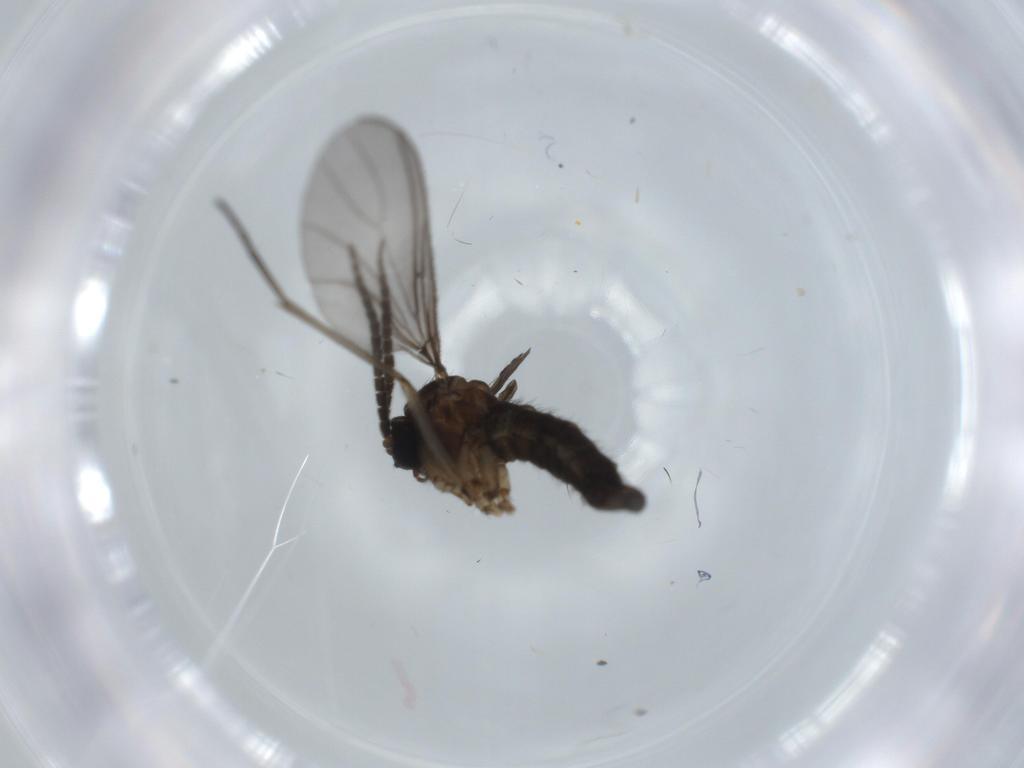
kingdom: Animalia
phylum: Arthropoda
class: Insecta
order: Diptera
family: Sciaridae
